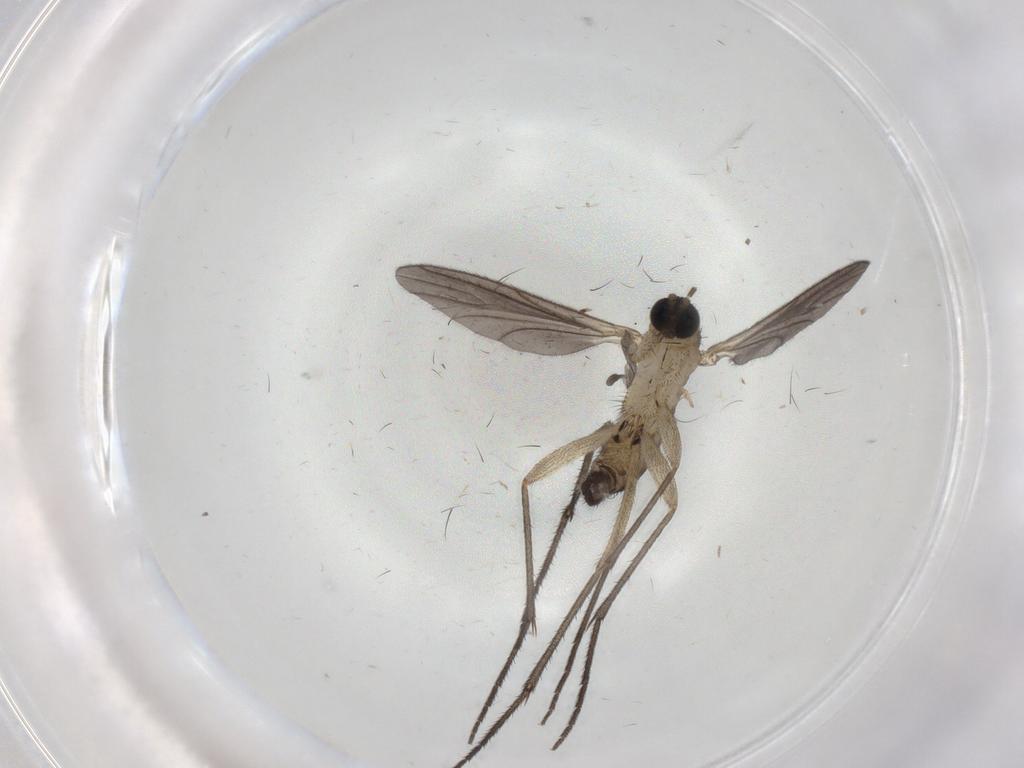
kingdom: Animalia
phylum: Arthropoda
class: Insecta
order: Diptera
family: Sciaridae
